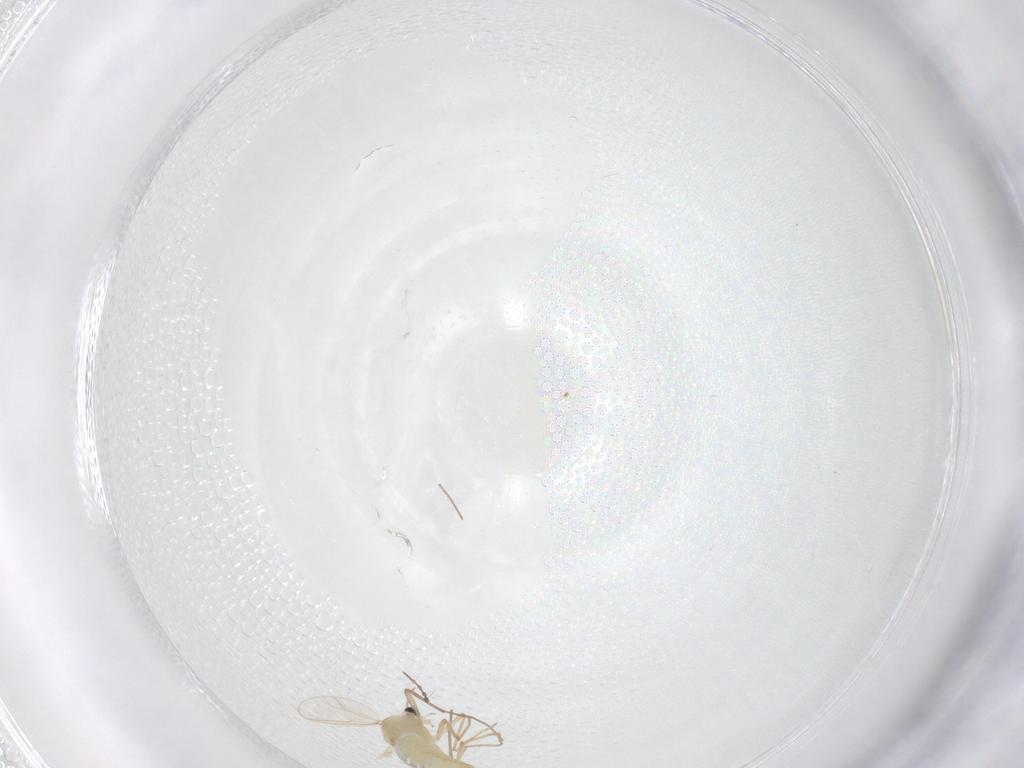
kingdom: Animalia
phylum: Arthropoda
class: Insecta
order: Diptera
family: Chironomidae
